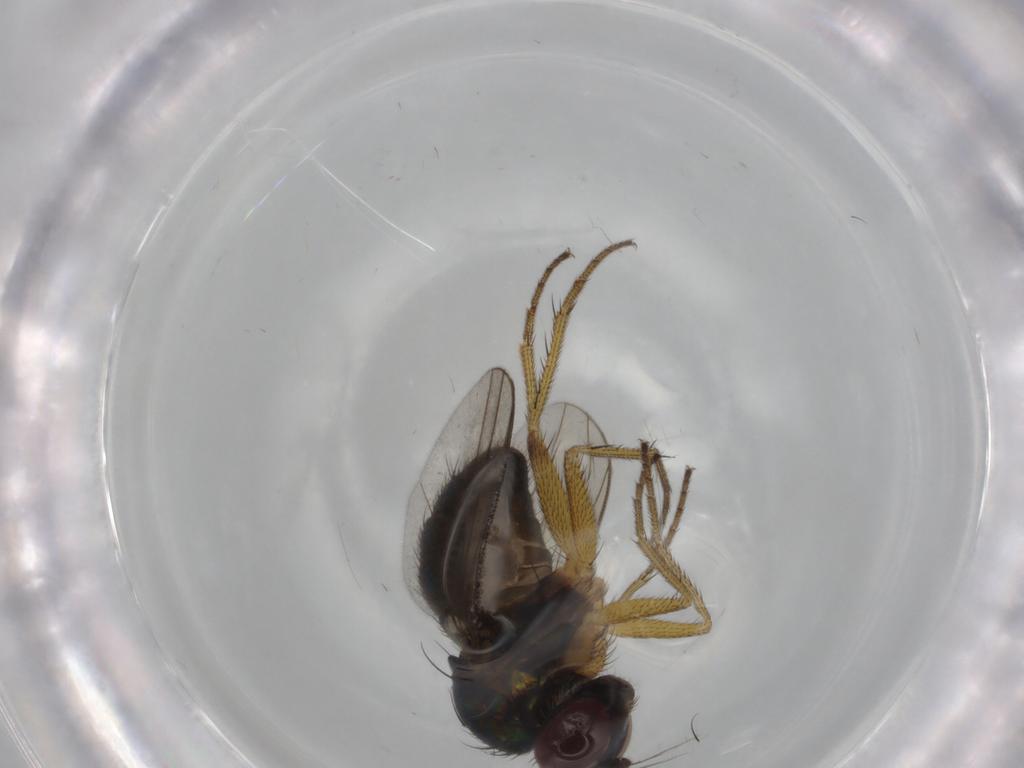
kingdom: Animalia
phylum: Arthropoda
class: Insecta
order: Diptera
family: Dolichopodidae
